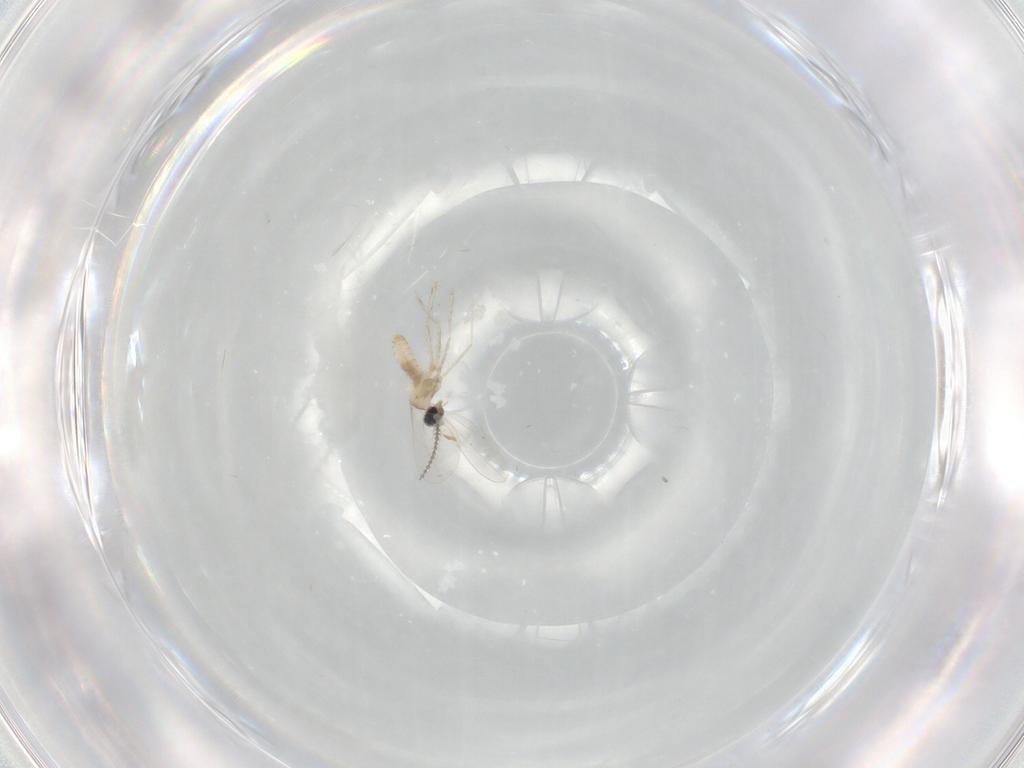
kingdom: Animalia
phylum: Arthropoda
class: Insecta
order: Diptera
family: Cecidomyiidae
